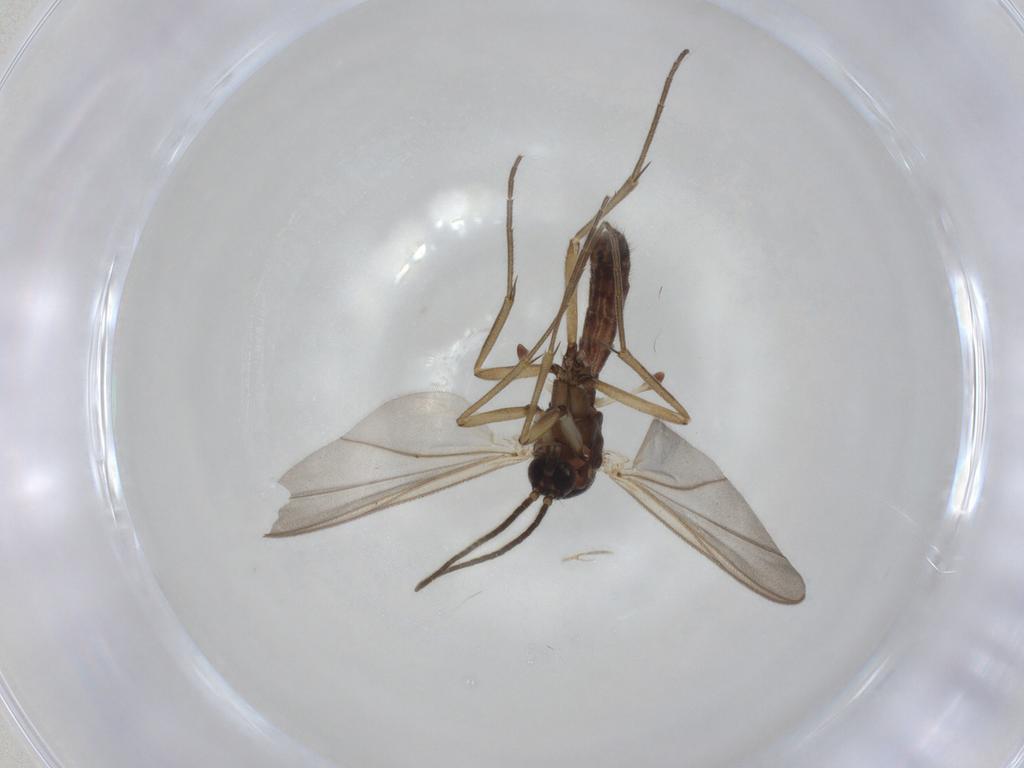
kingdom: Animalia
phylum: Arthropoda
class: Insecta
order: Diptera
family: Mycetophilidae
